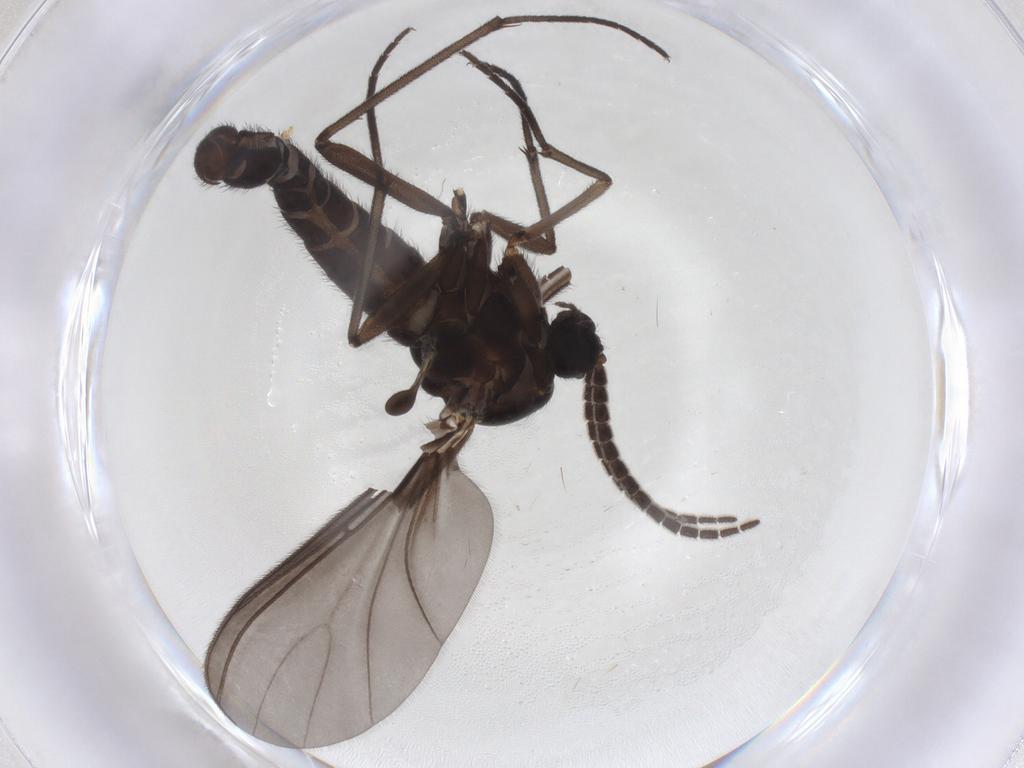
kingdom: Animalia
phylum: Arthropoda
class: Insecta
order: Diptera
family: Cecidomyiidae
